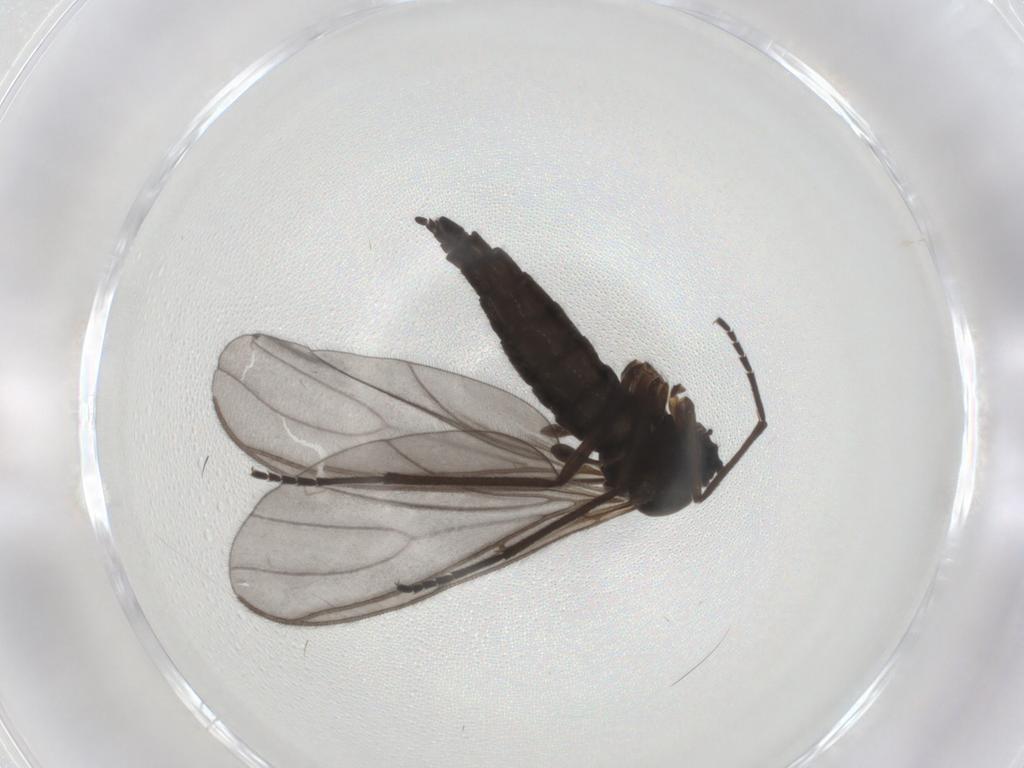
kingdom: Animalia
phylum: Arthropoda
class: Insecta
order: Diptera
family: Sciaridae
